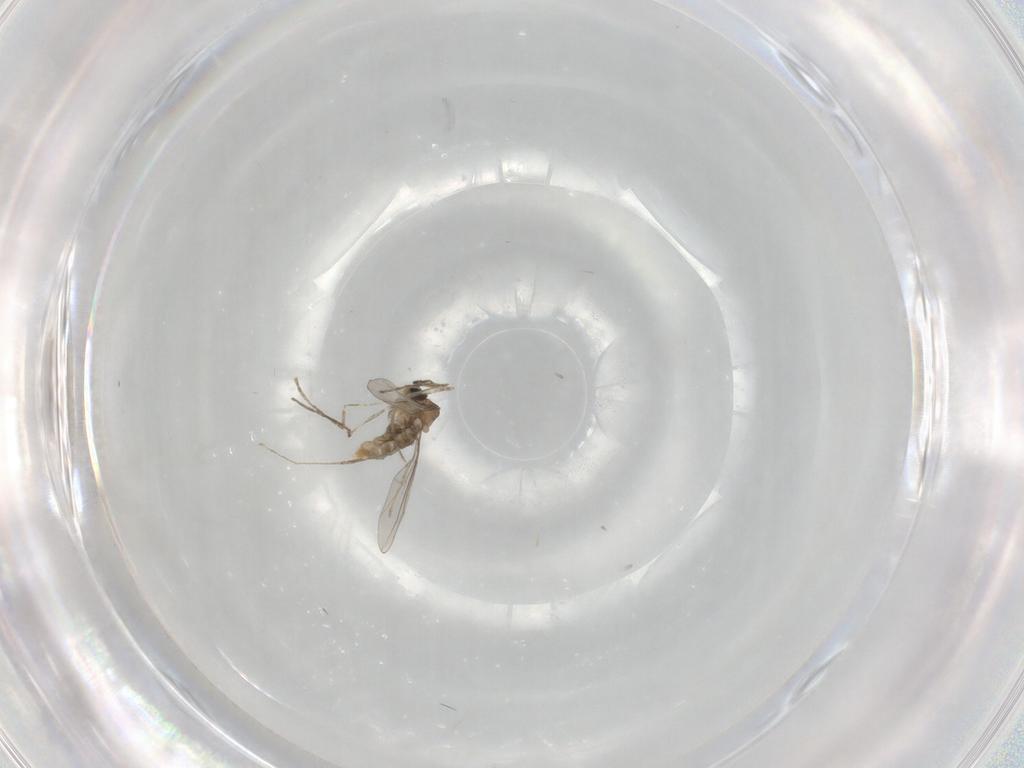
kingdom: Animalia
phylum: Arthropoda
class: Insecta
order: Diptera
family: Cecidomyiidae
